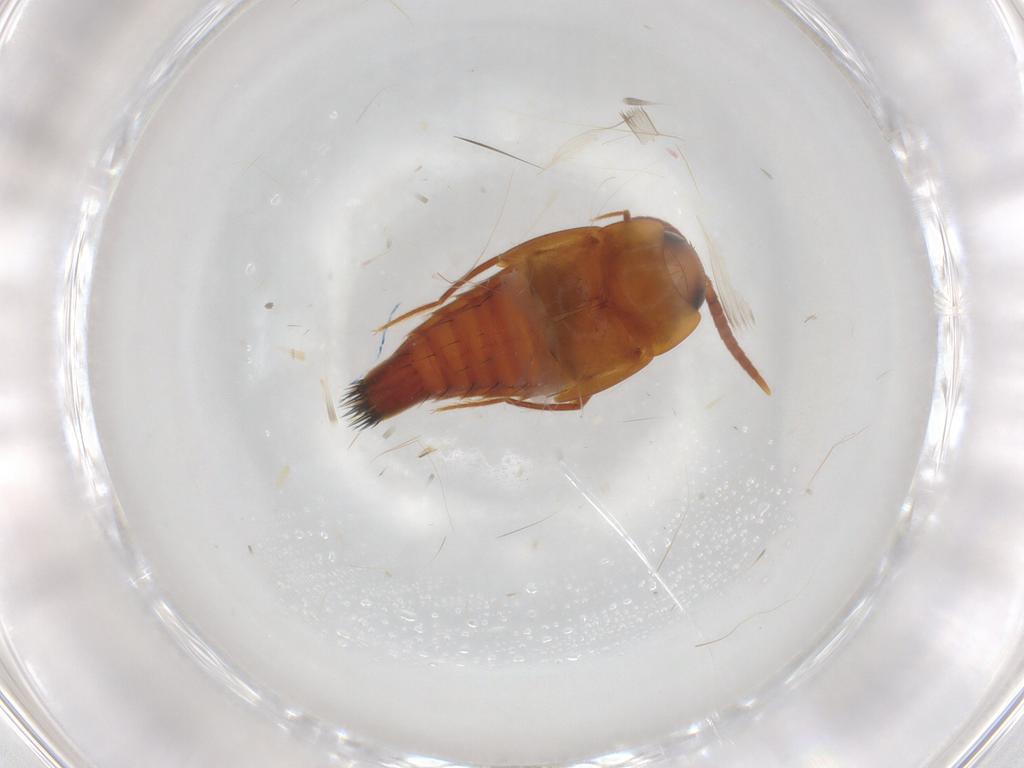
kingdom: Animalia
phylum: Arthropoda
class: Insecta
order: Coleoptera
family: Staphylinidae
